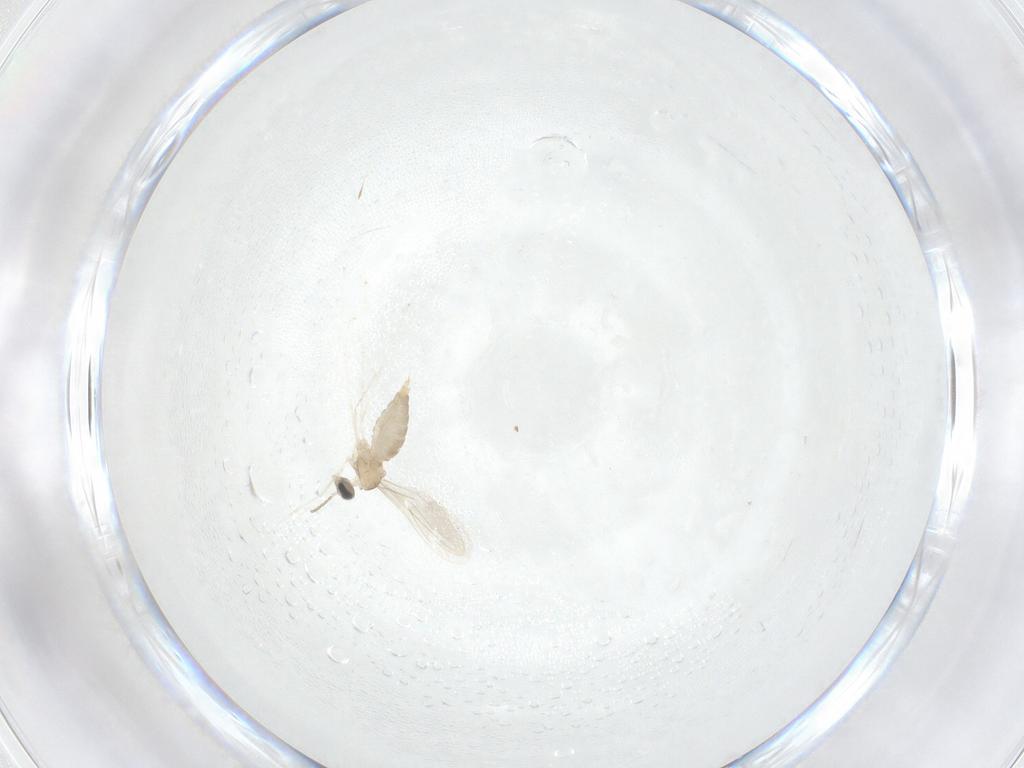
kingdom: Animalia
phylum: Arthropoda
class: Insecta
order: Diptera
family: Cecidomyiidae
